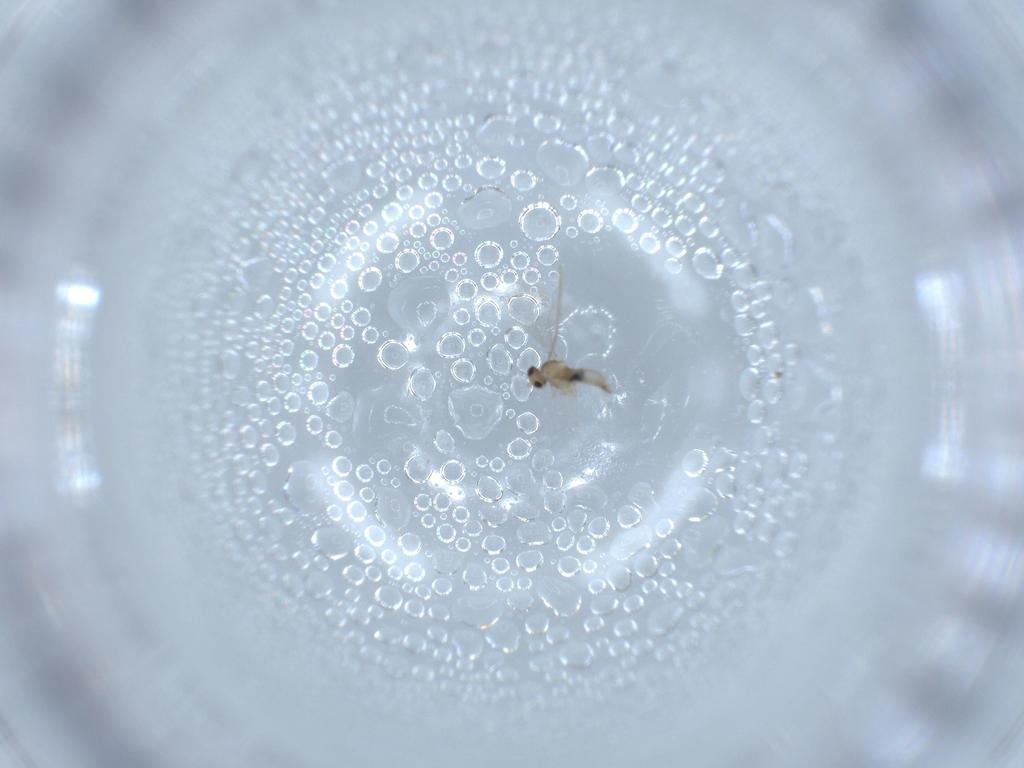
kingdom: Animalia
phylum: Arthropoda
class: Insecta
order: Diptera
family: Cecidomyiidae
